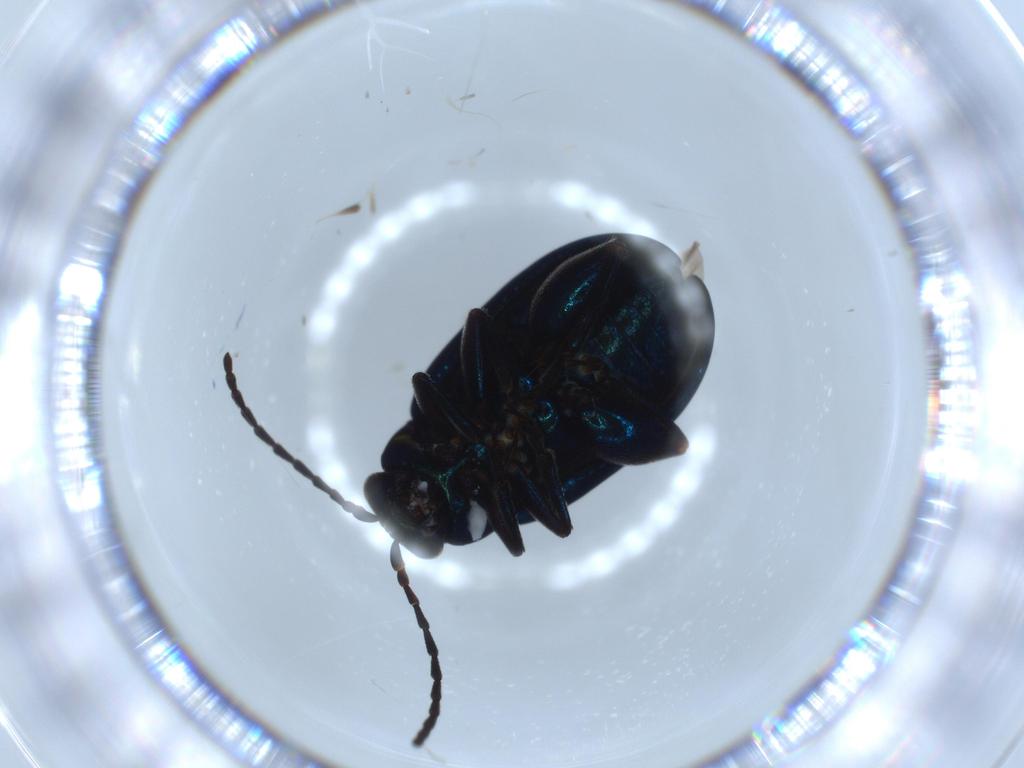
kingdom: Animalia
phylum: Arthropoda
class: Insecta
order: Coleoptera
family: Chrysomelidae
